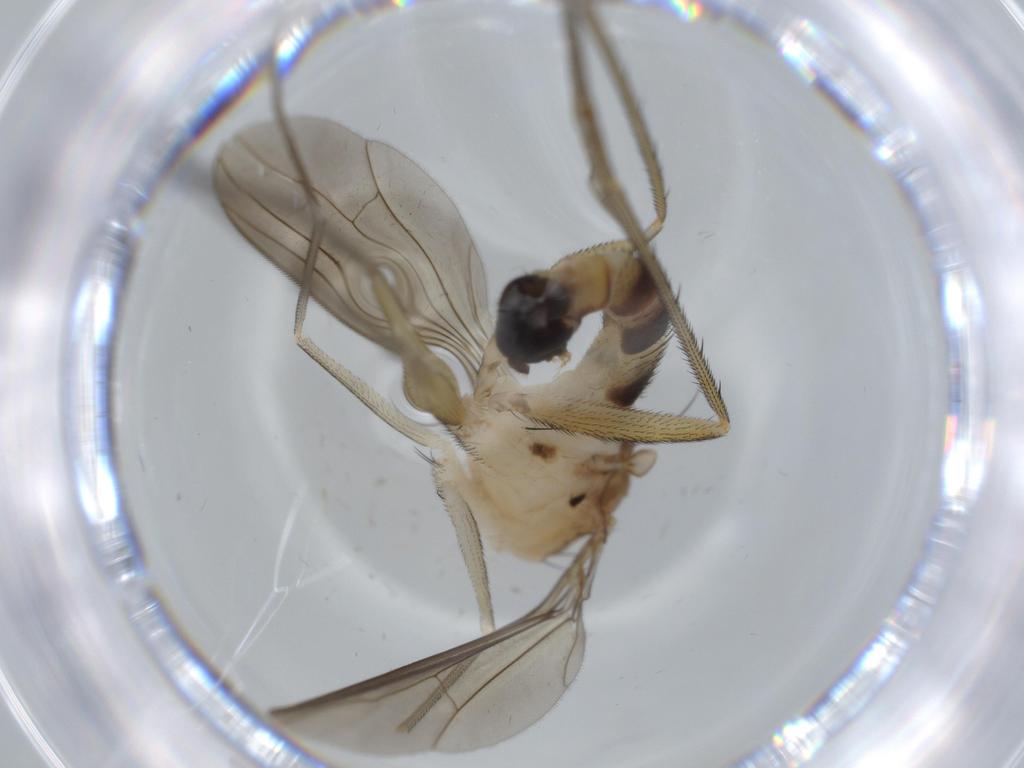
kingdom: Animalia
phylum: Arthropoda
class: Insecta
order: Diptera
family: Dolichopodidae
